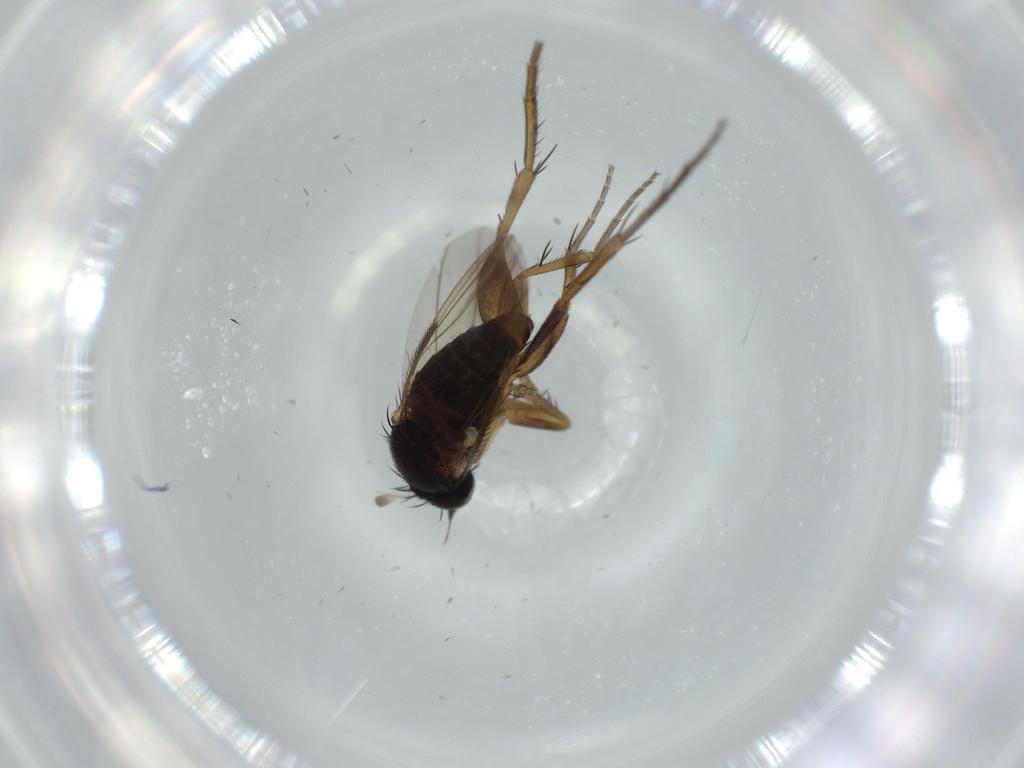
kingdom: Animalia
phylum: Arthropoda
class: Insecta
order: Diptera
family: Phoridae
